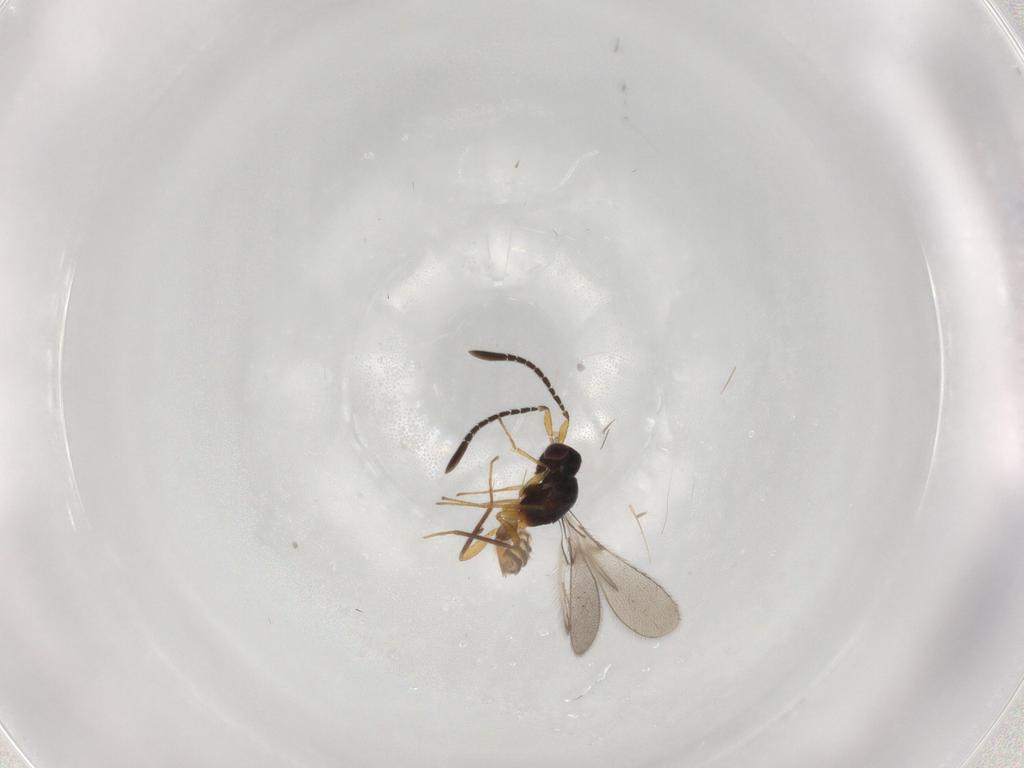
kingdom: Animalia
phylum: Arthropoda
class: Insecta
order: Hymenoptera
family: Mymaridae
